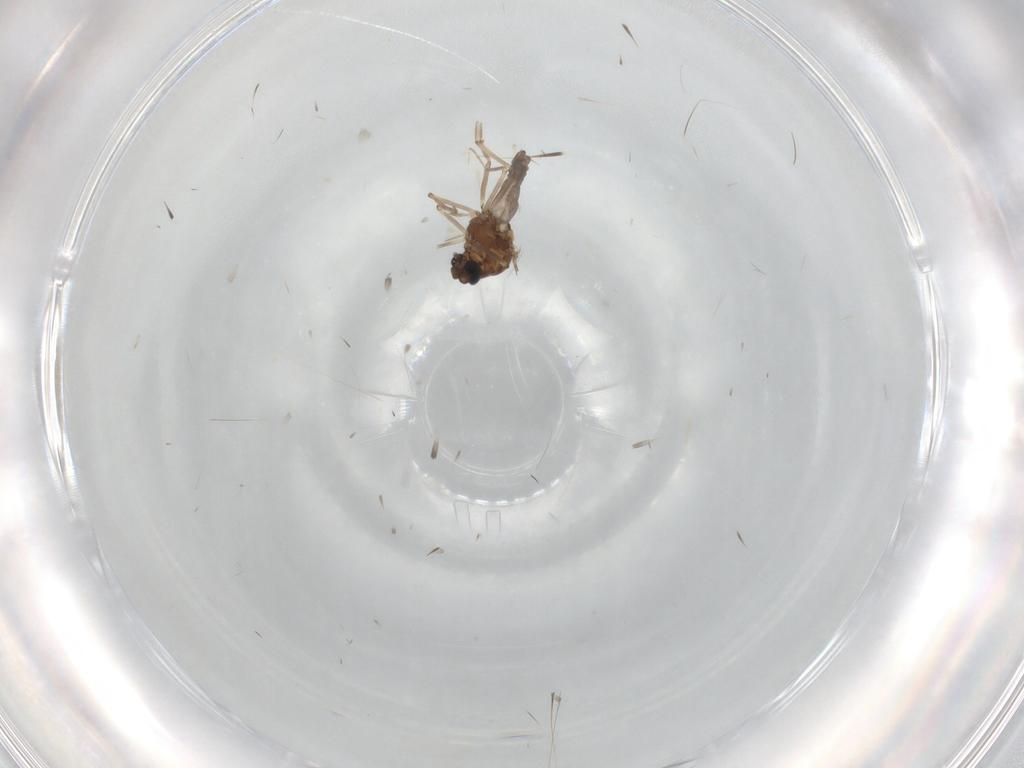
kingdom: Animalia
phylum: Arthropoda
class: Insecta
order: Diptera
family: Ceratopogonidae
